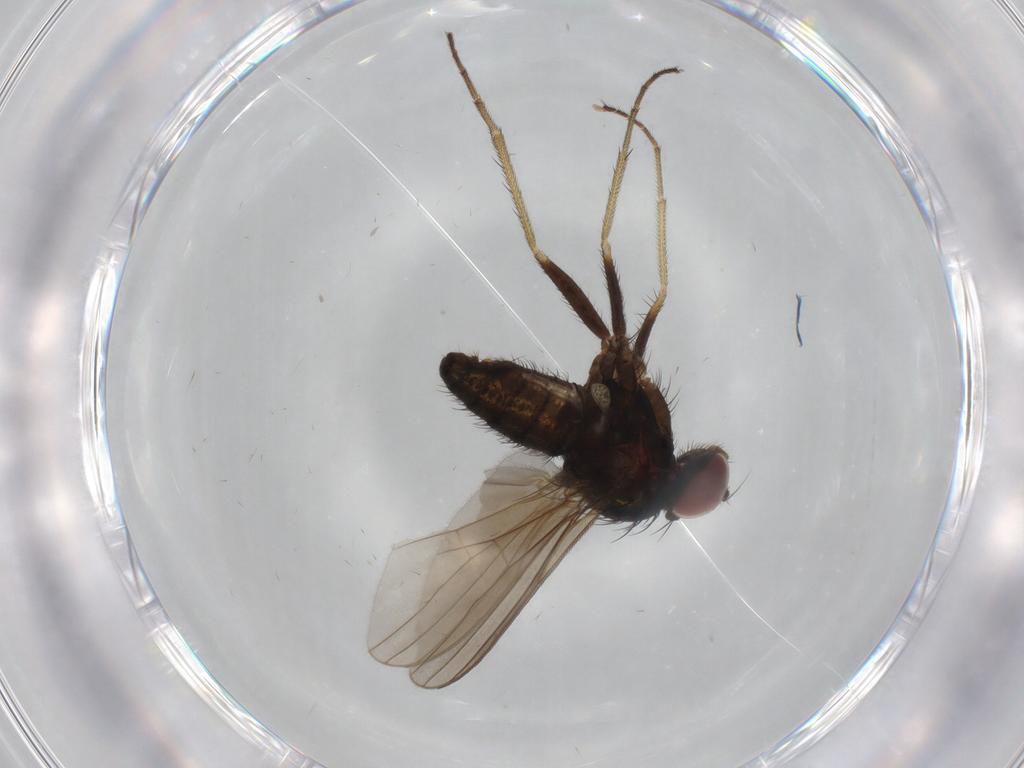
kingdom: Animalia
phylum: Arthropoda
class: Insecta
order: Diptera
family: Dolichopodidae
